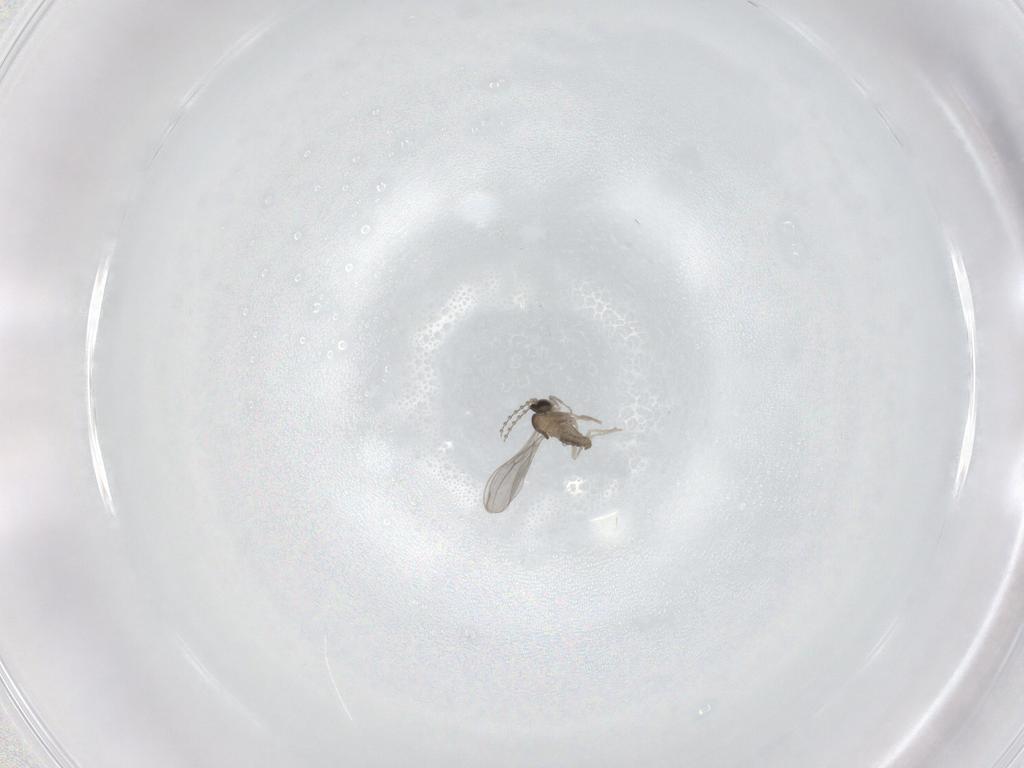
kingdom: Animalia
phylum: Arthropoda
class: Insecta
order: Diptera
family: Cecidomyiidae
